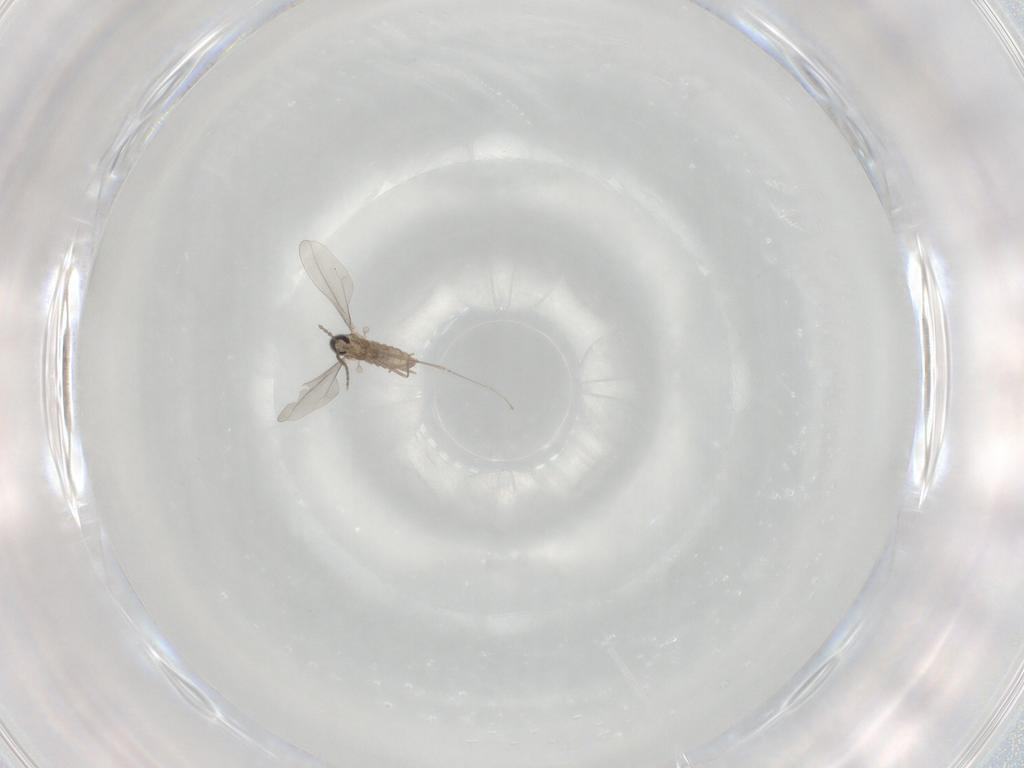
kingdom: Animalia
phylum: Arthropoda
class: Insecta
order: Diptera
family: Cecidomyiidae
